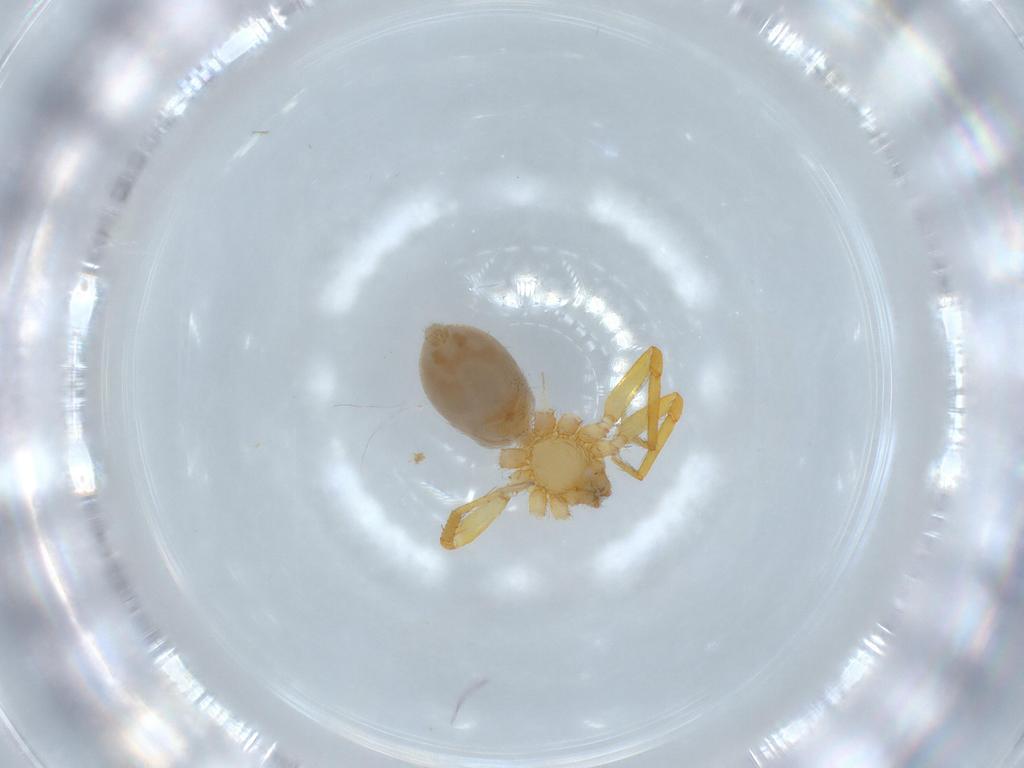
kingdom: Animalia
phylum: Arthropoda
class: Arachnida
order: Araneae
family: Oonopidae
